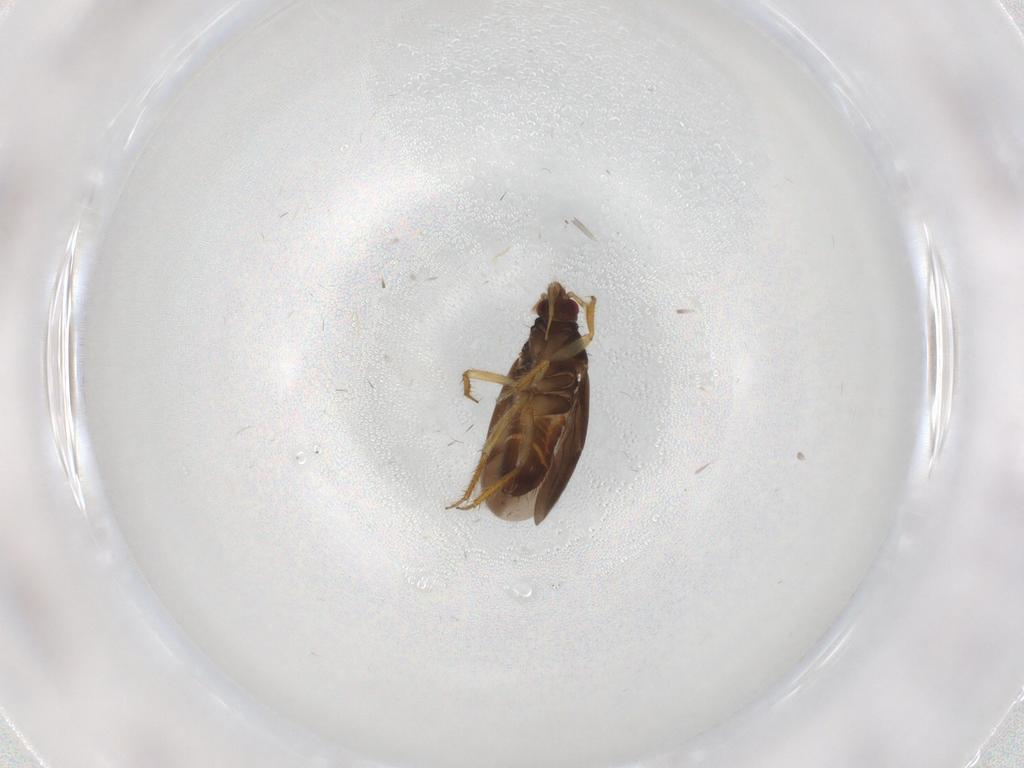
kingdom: Animalia
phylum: Arthropoda
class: Insecta
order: Hemiptera
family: Ceratocombidae
